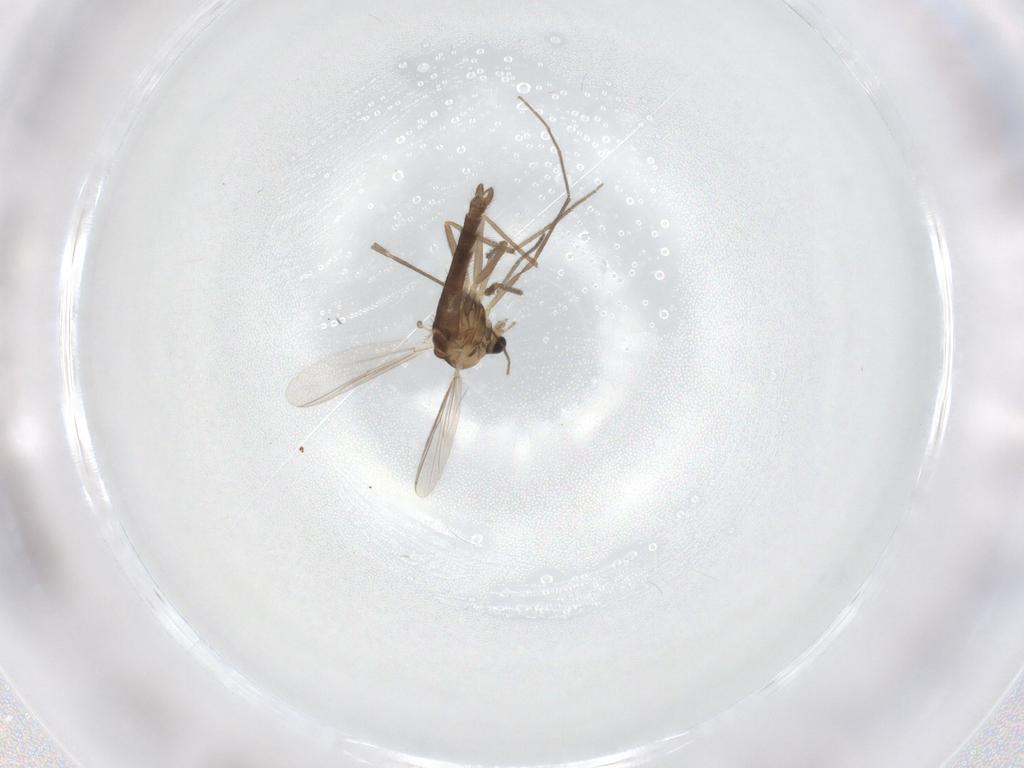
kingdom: Animalia
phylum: Arthropoda
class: Insecta
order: Diptera
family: Chironomidae
